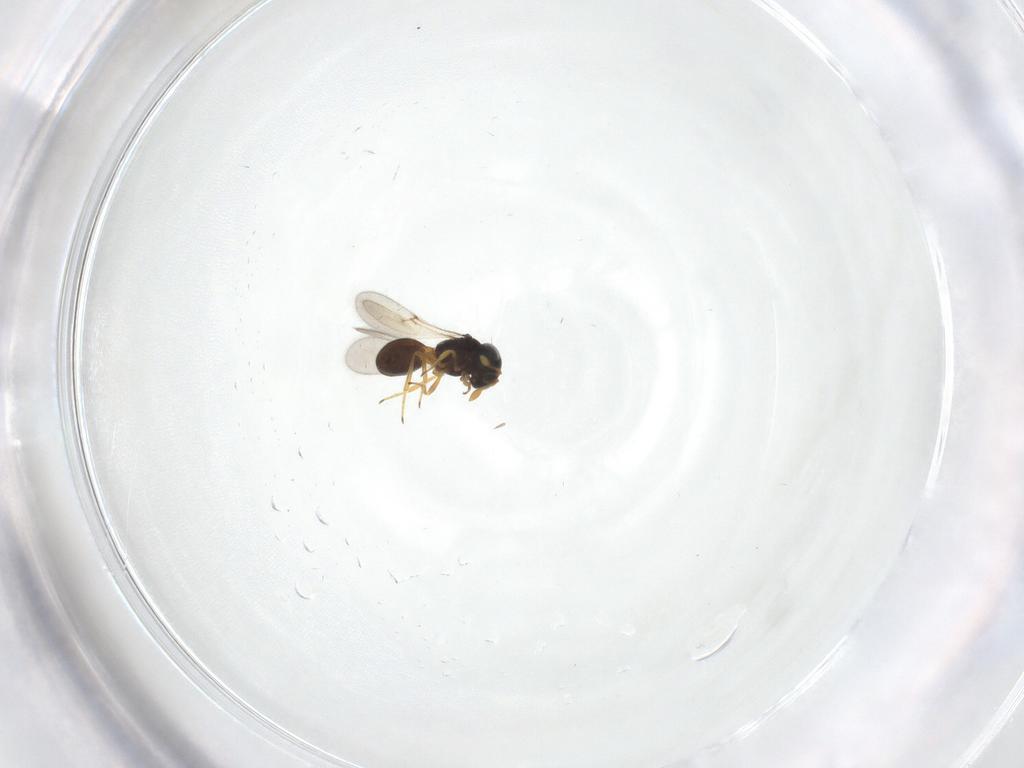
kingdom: Animalia
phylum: Arthropoda
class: Insecta
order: Hymenoptera
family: Scelionidae
